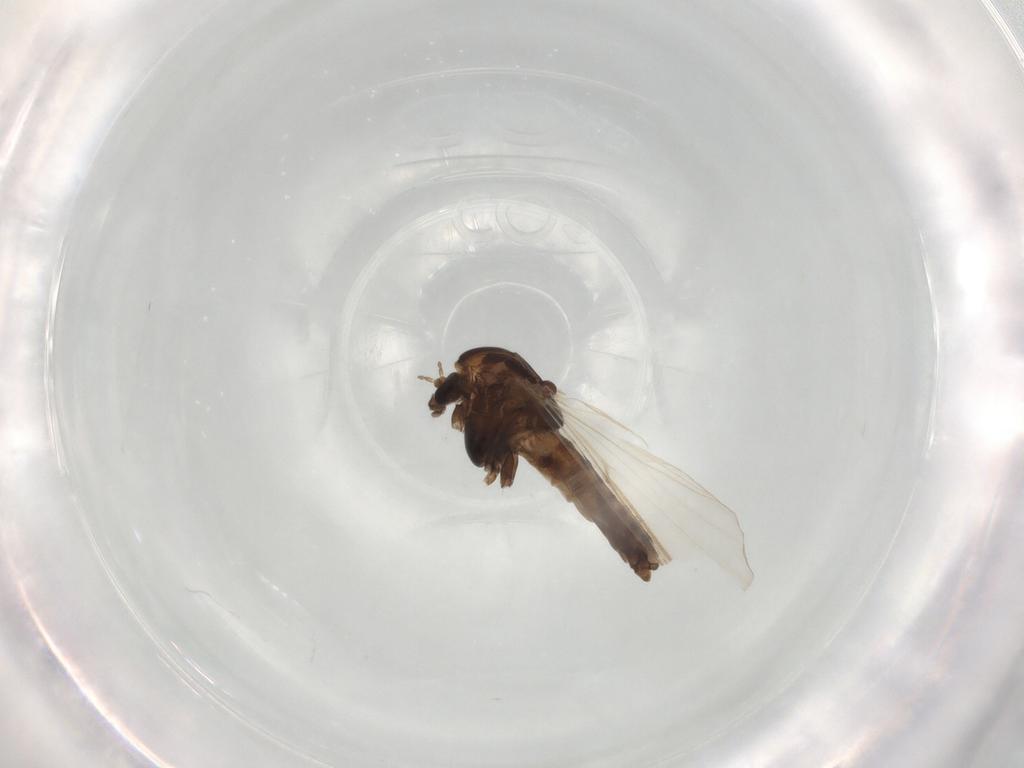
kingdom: Animalia
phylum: Arthropoda
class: Insecta
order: Diptera
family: Chironomidae
